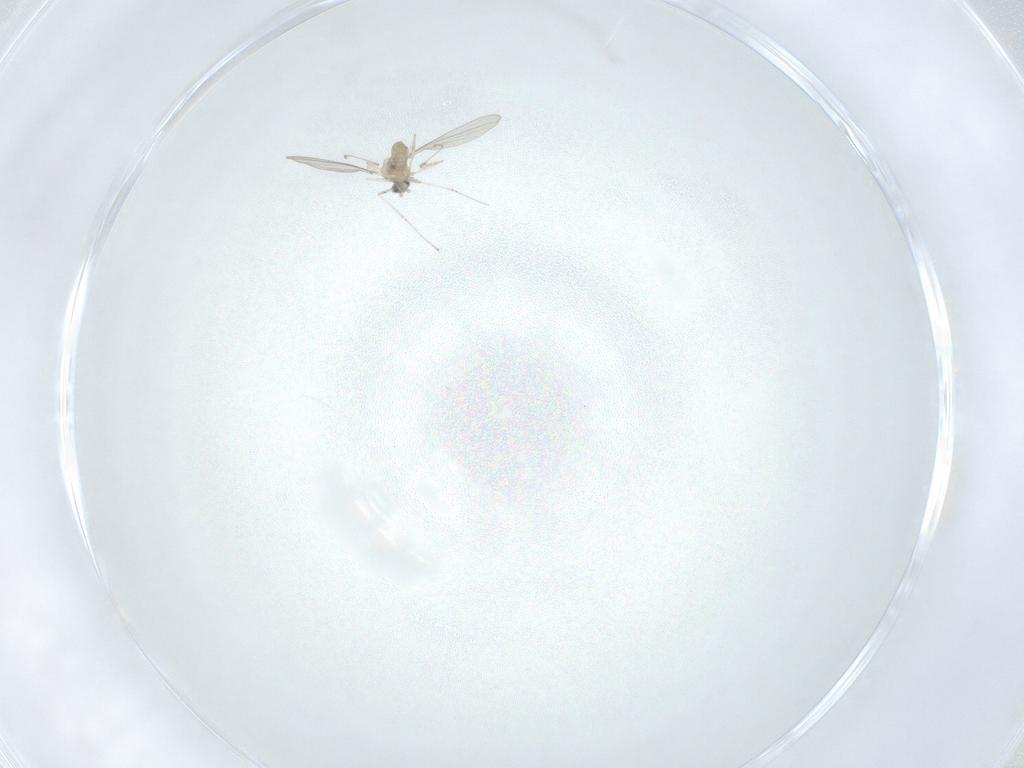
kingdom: Animalia
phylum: Arthropoda
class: Insecta
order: Diptera
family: Cecidomyiidae
